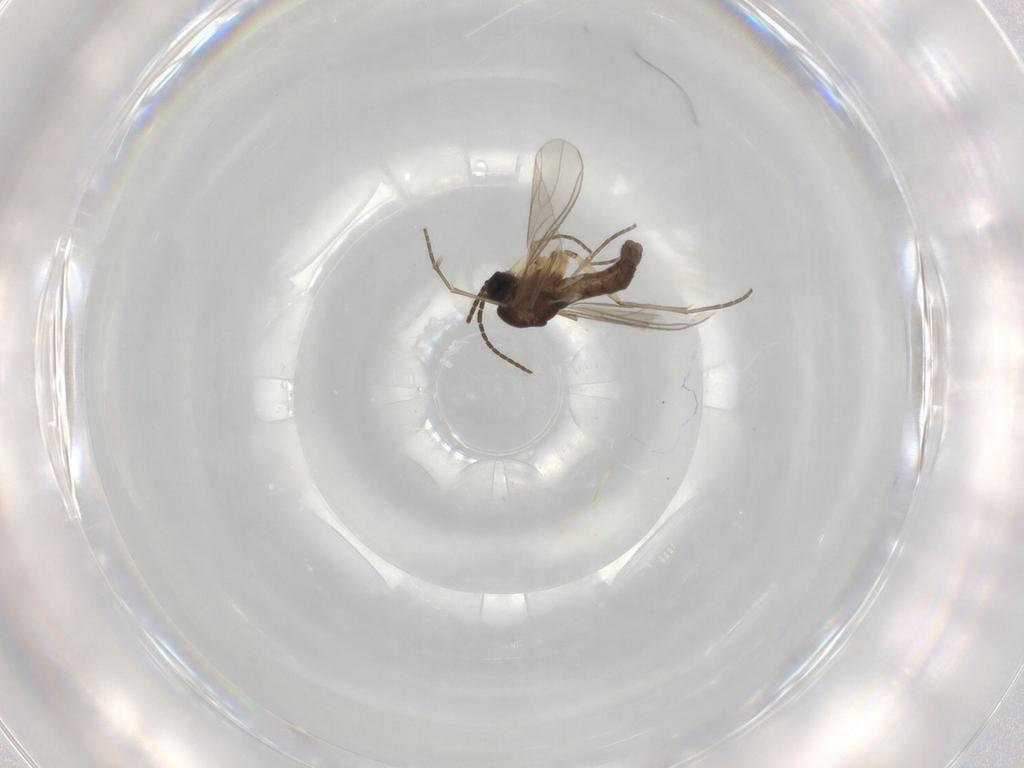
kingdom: Animalia
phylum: Arthropoda
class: Insecta
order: Diptera
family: Sciaridae
